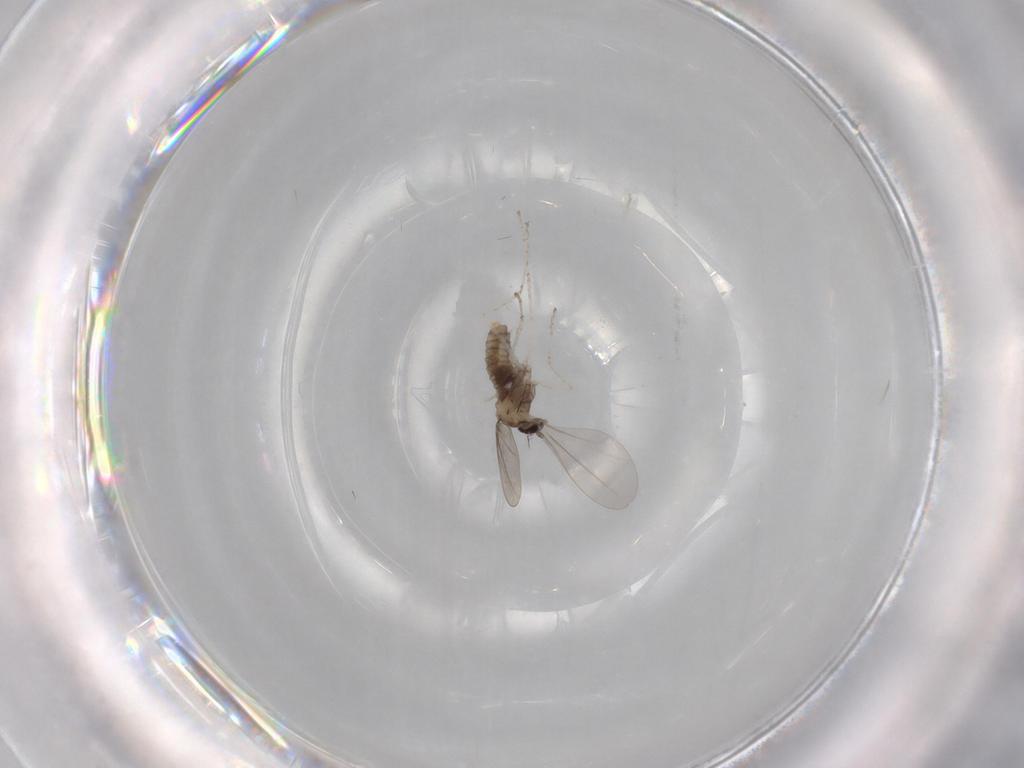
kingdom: Animalia
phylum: Arthropoda
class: Insecta
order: Diptera
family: Cecidomyiidae
